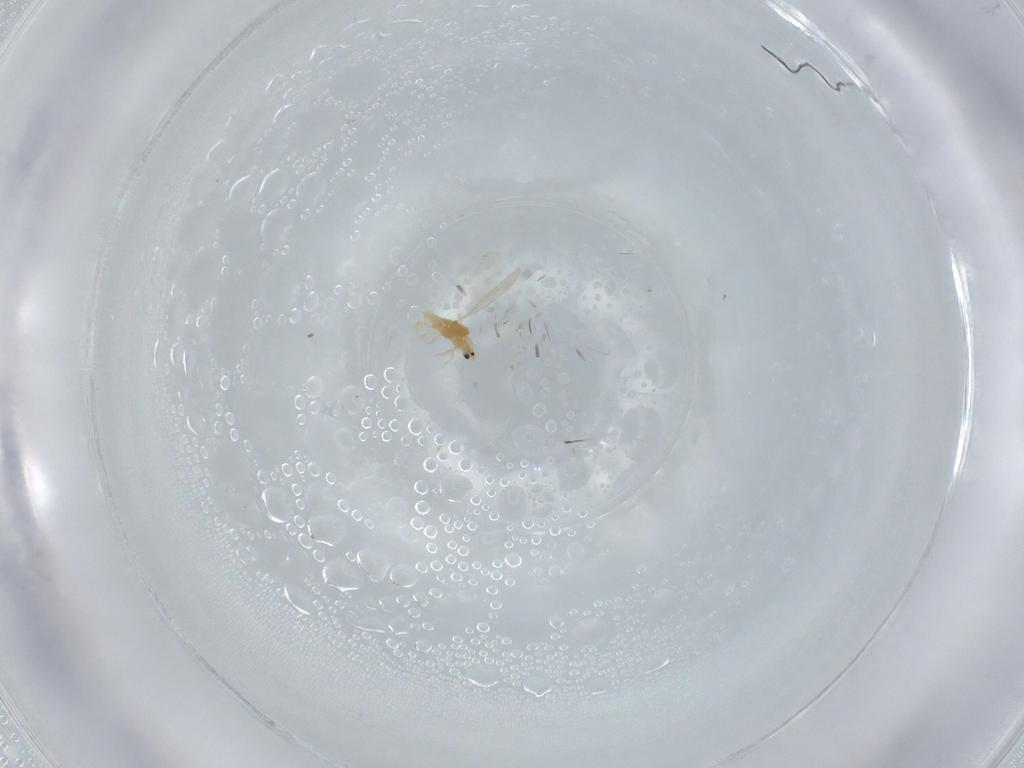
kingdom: Animalia
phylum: Arthropoda
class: Insecta
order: Hemiptera
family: Diaspididae
